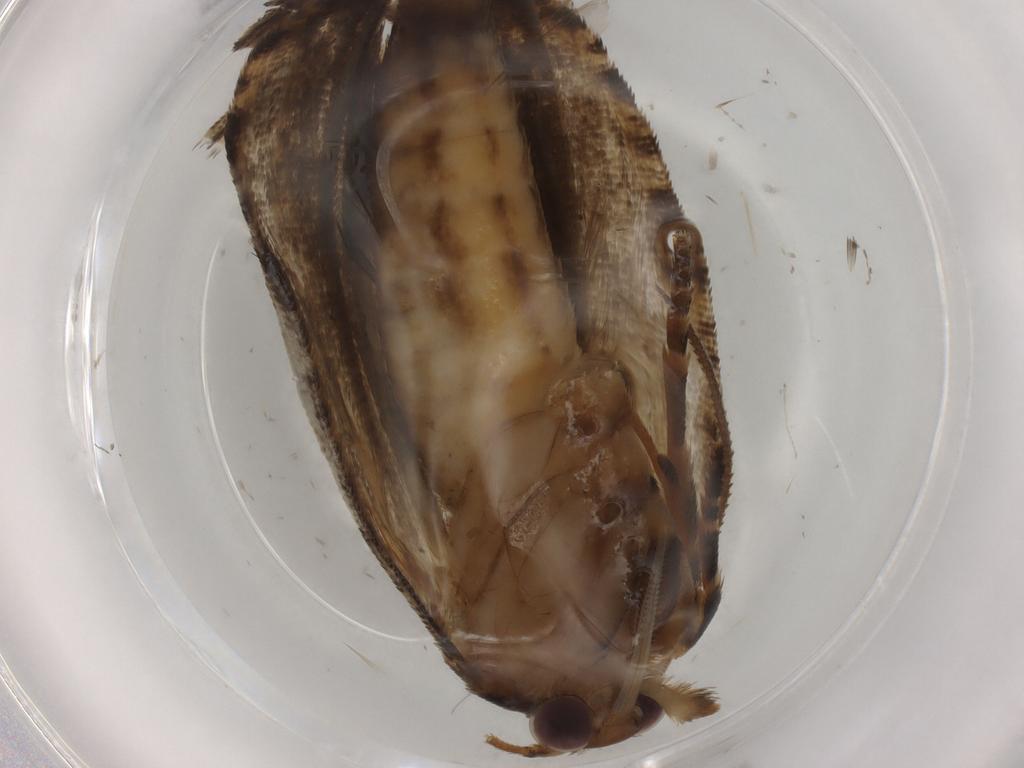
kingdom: Animalia
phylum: Arthropoda
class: Insecta
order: Lepidoptera
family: Tortricidae
